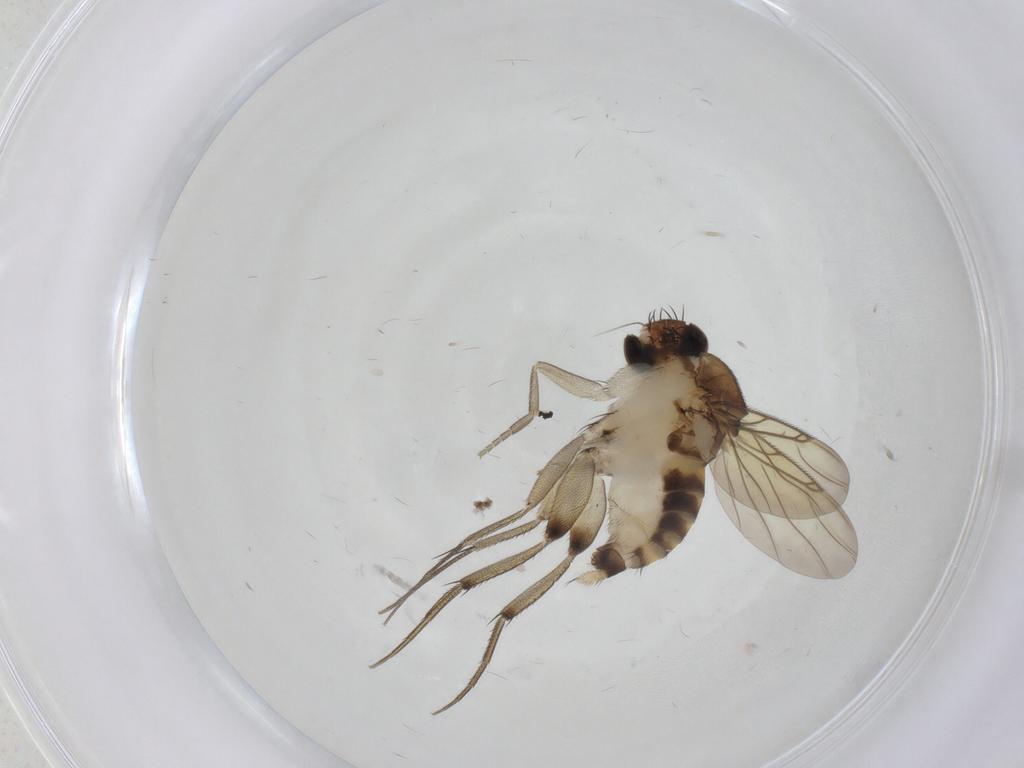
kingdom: Animalia
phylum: Arthropoda
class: Insecta
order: Diptera
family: Phoridae
